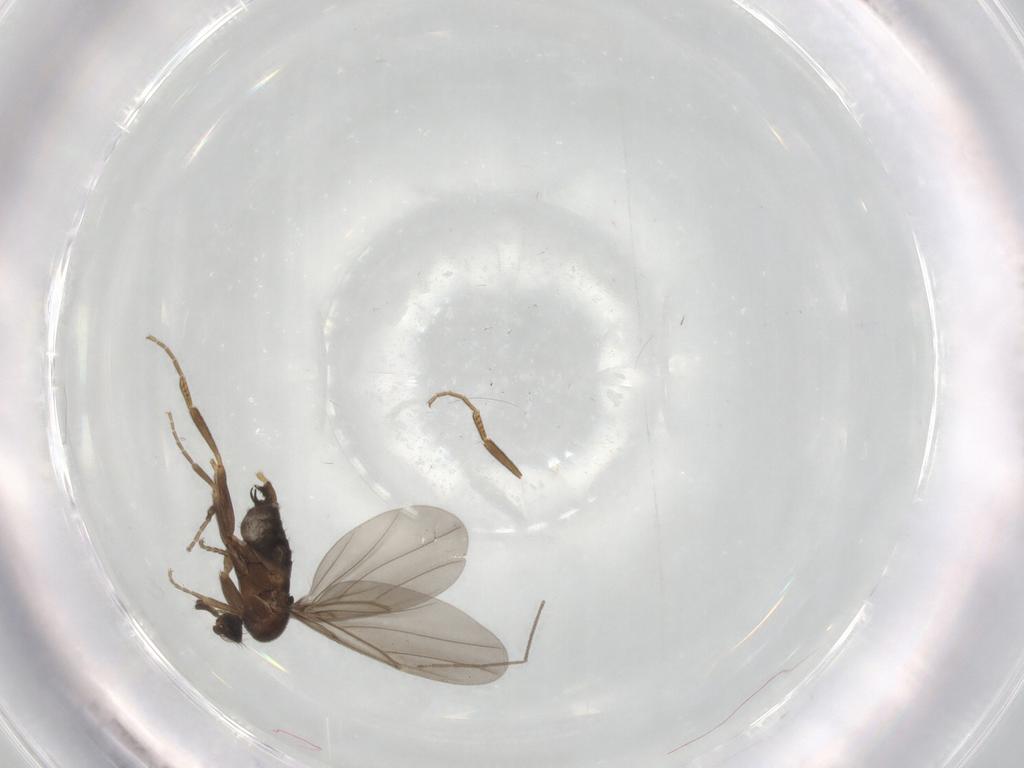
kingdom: Animalia
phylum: Arthropoda
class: Insecta
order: Diptera
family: Phoridae
